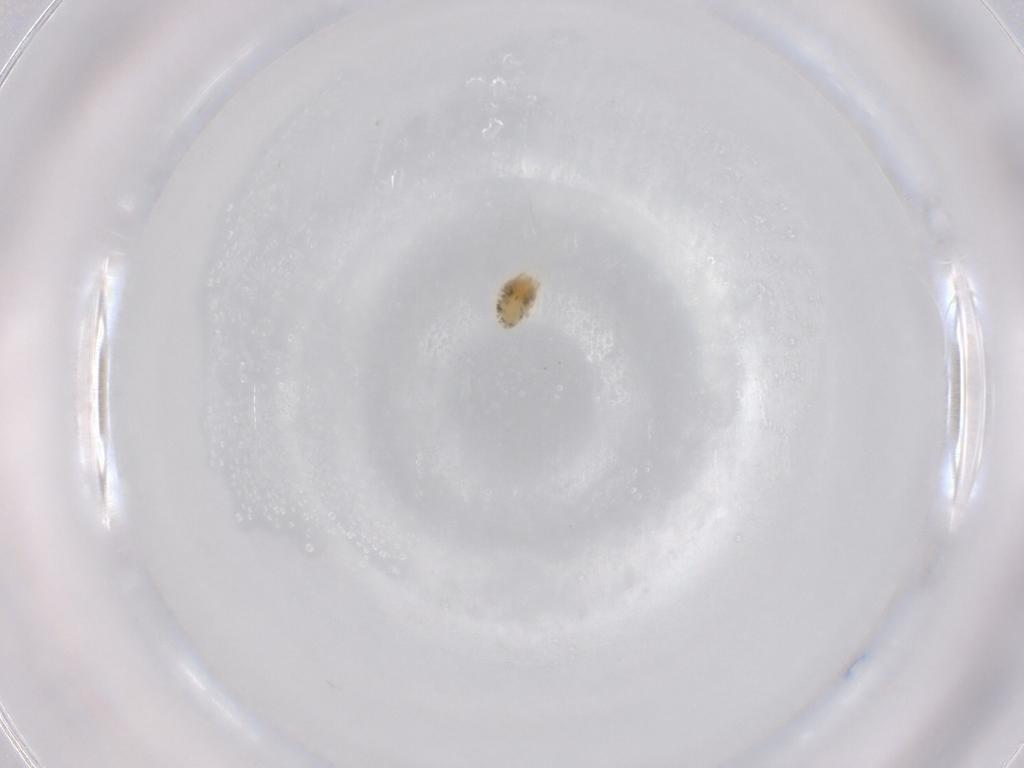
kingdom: Animalia
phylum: Arthropoda
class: Arachnida
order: Trombidiformes
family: Tetranychidae
